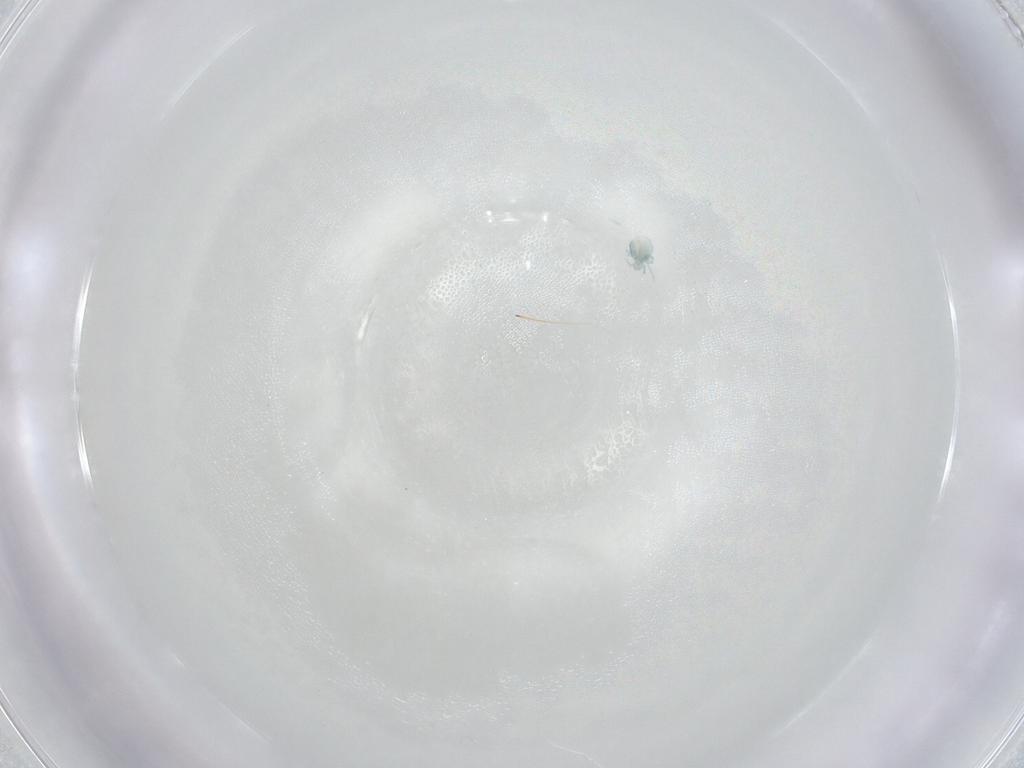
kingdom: Animalia
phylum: Arthropoda
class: Arachnida
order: Trombidiformes
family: Arrenuridae
